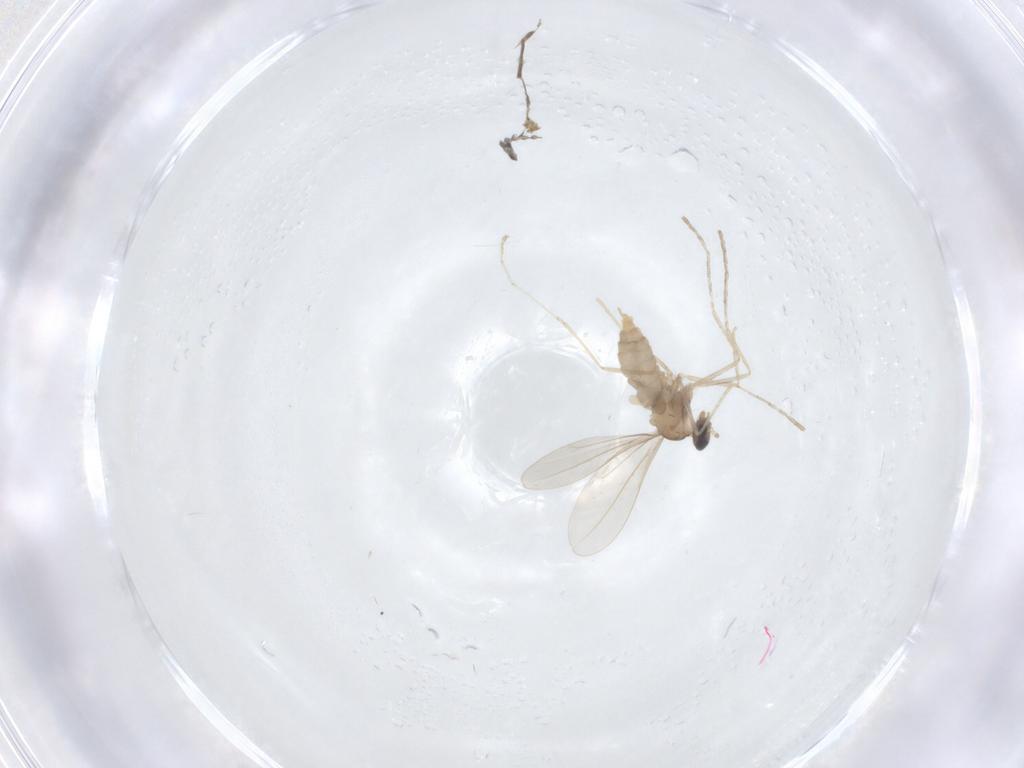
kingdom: Animalia
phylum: Arthropoda
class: Insecta
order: Diptera
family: Cecidomyiidae
